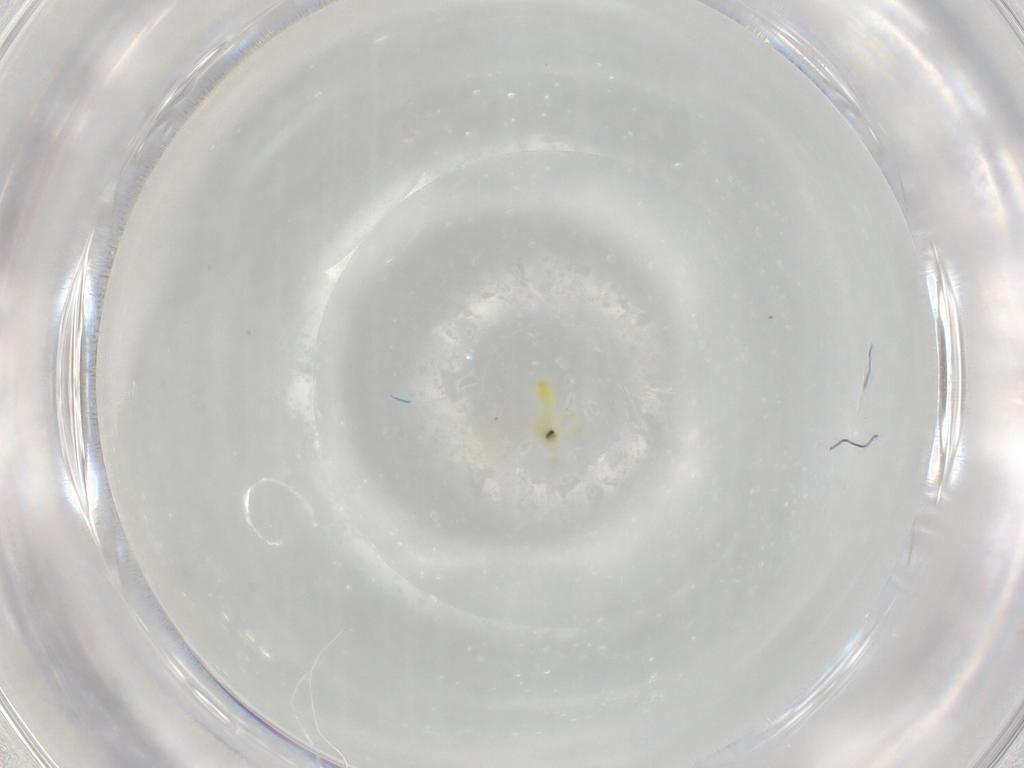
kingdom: Animalia
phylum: Arthropoda
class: Insecta
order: Hemiptera
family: Aleyrodidae
